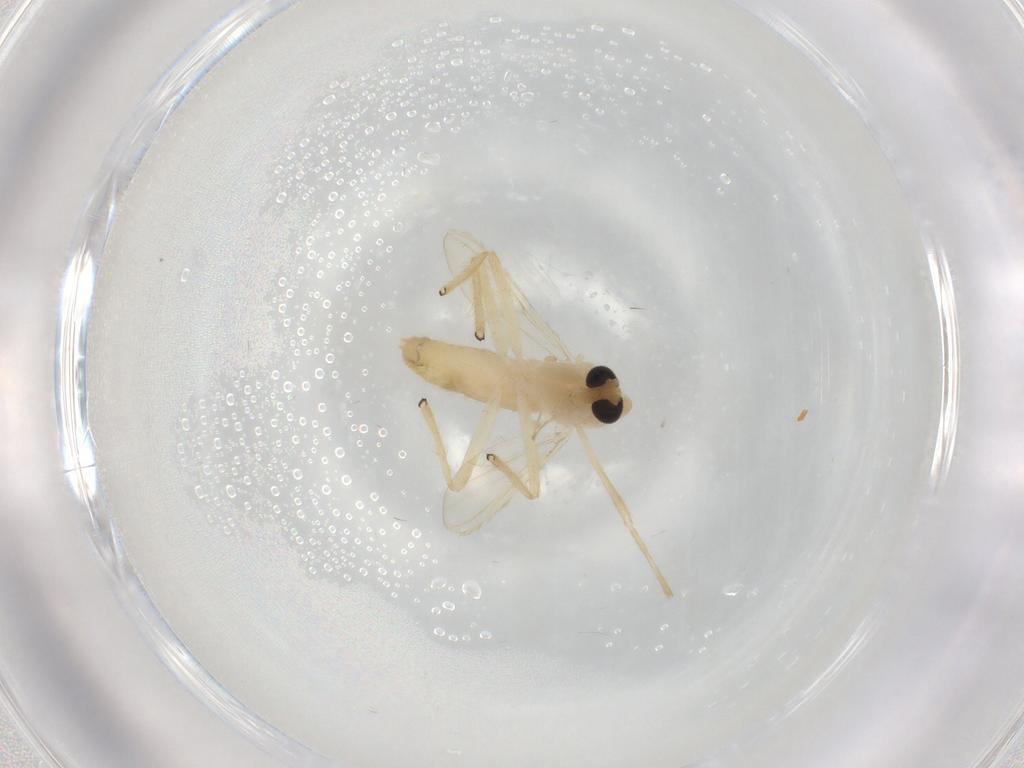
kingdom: Animalia
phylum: Arthropoda
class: Insecta
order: Diptera
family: Chironomidae
